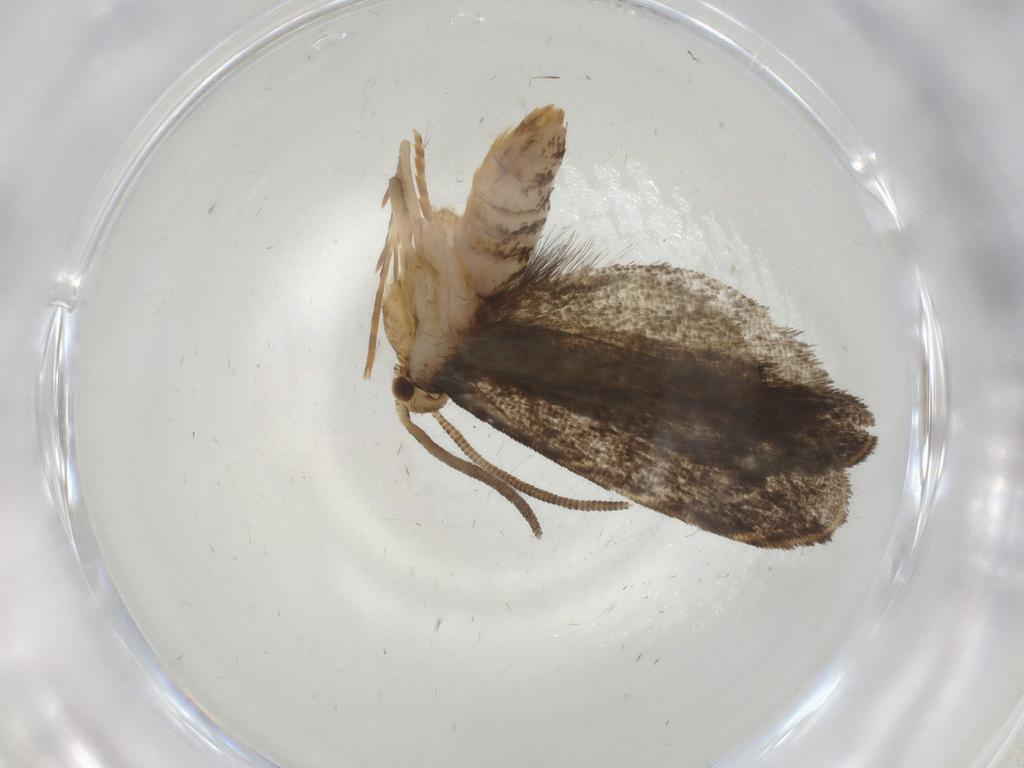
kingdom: Animalia
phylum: Arthropoda
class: Insecta
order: Lepidoptera
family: Dryadaulidae
